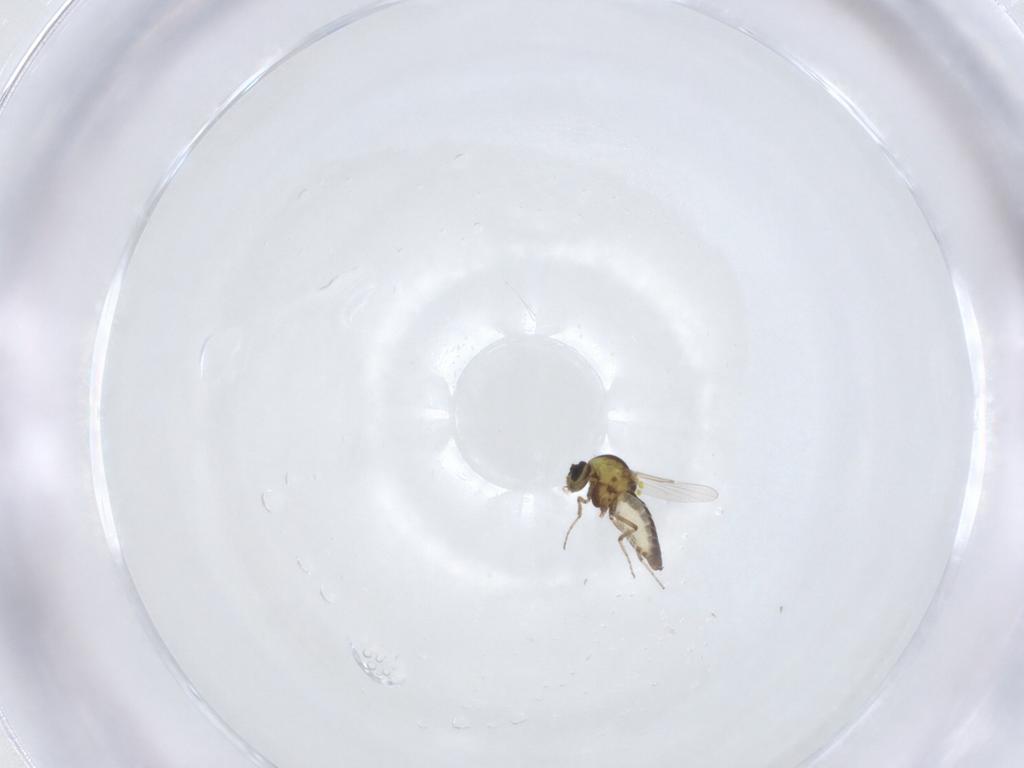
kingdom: Animalia
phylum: Arthropoda
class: Insecta
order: Diptera
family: Ceratopogonidae
